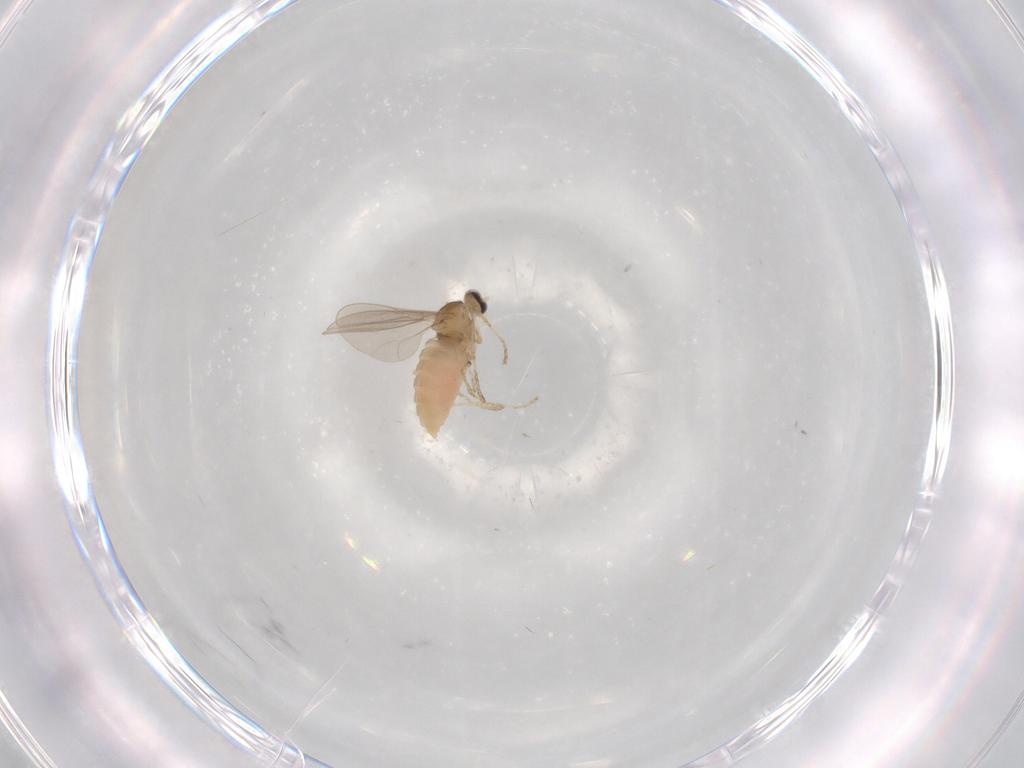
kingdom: Animalia
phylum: Arthropoda
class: Insecta
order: Diptera
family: Cecidomyiidae
